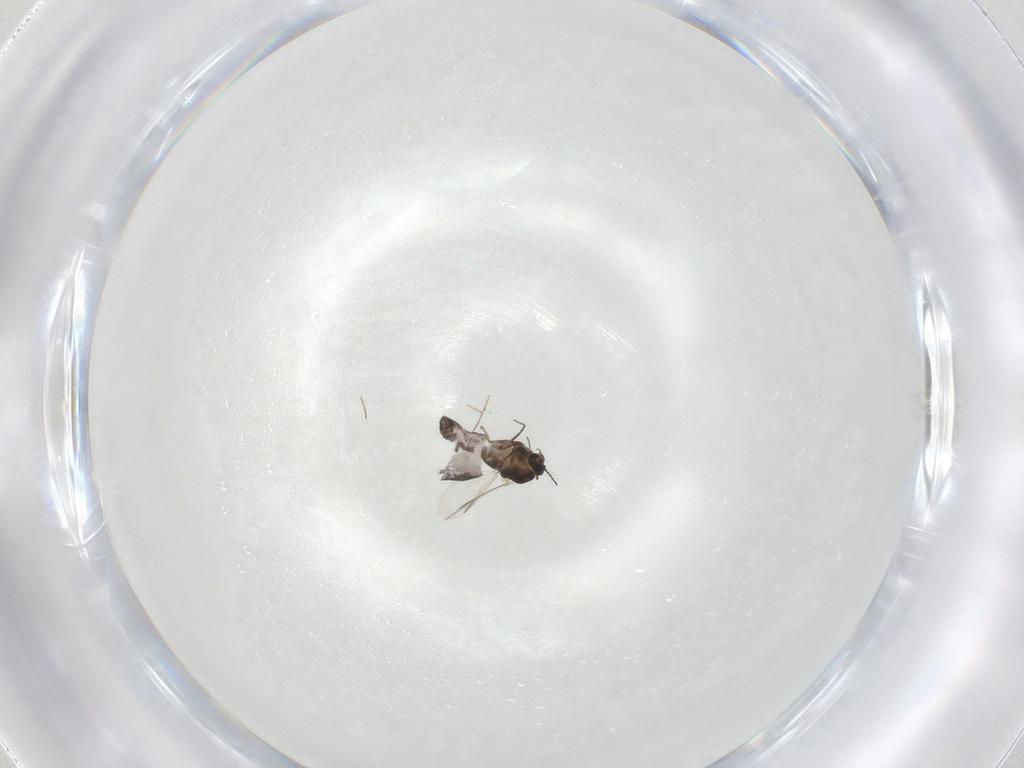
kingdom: Animalia
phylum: Arthropoda
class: Insecta
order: Diptera
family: Chironomidae
